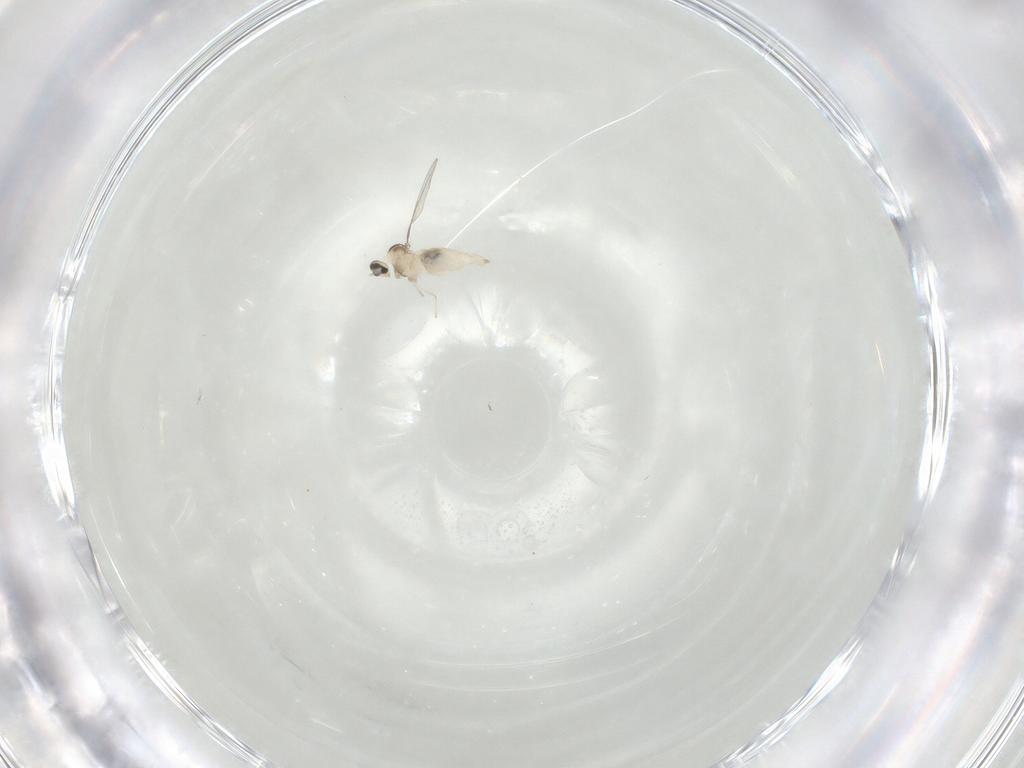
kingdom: Animalia
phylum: Arthropoda
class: Insecta
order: Diptera
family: Cecidomyiidae
